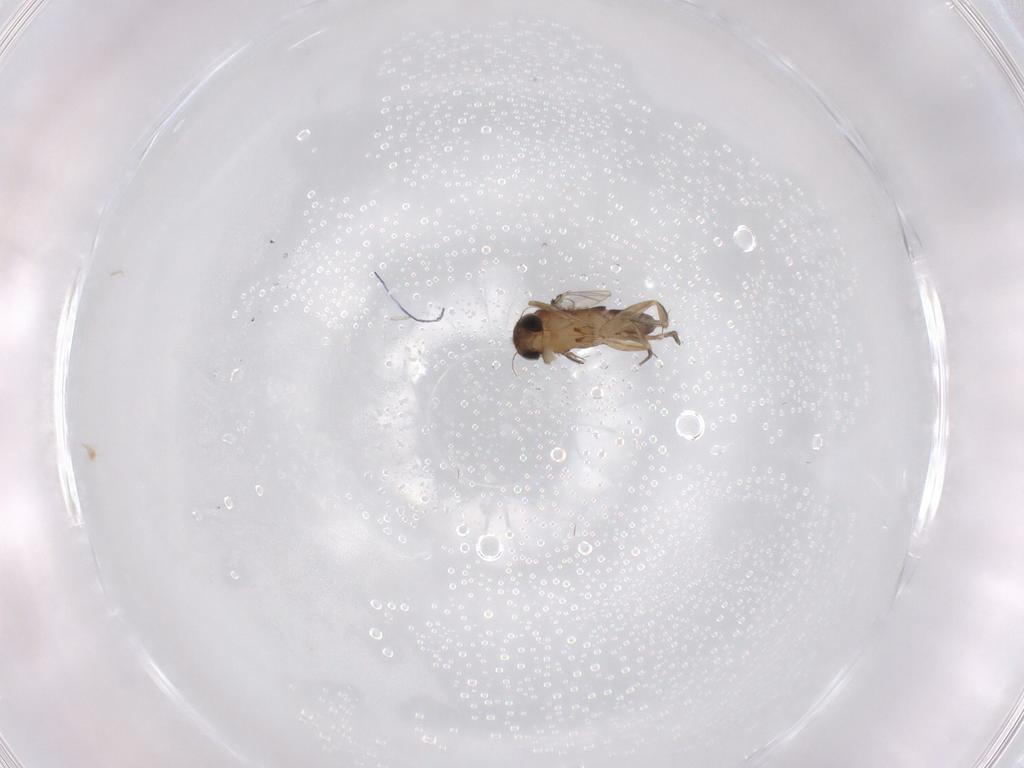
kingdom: Animalia
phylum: Arthropoda
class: Insecta
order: Diptera
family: Phoridae
